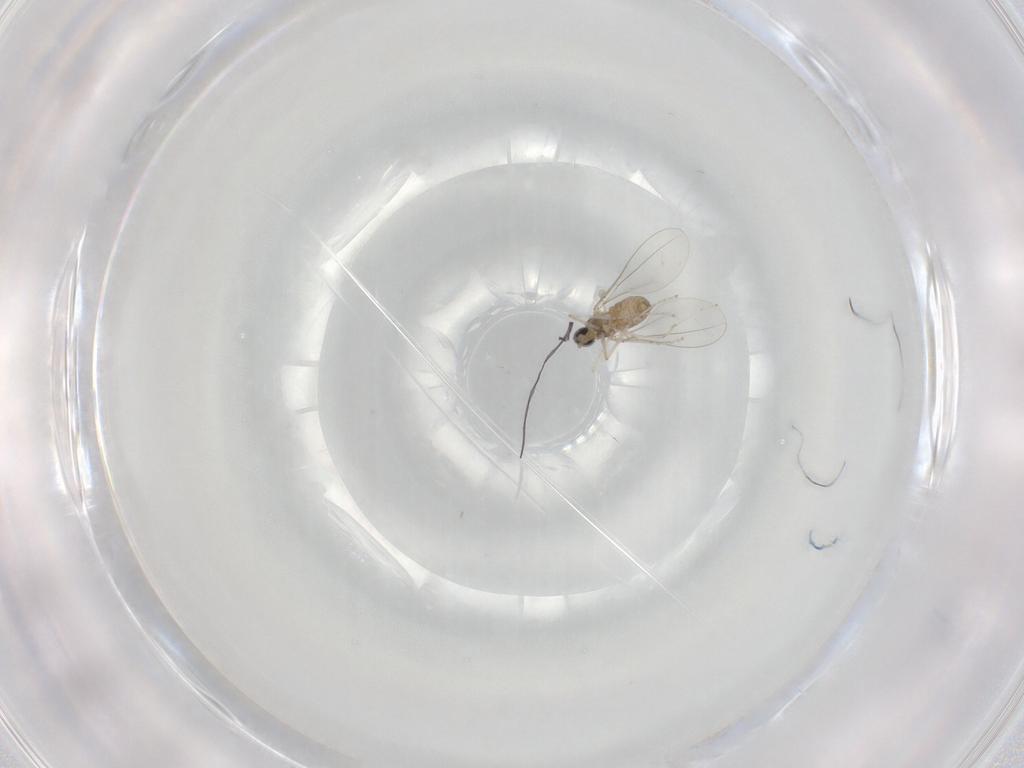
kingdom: Animalia
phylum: Arthropoda
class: Insecta
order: Diptera
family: Cecidomyiidae
